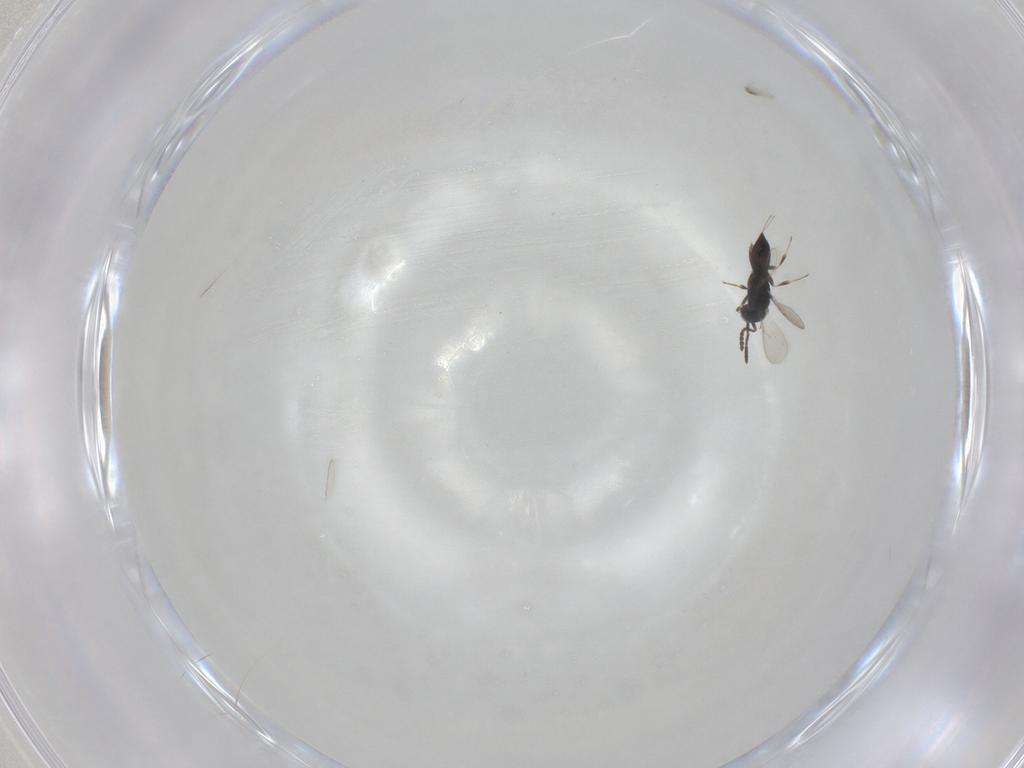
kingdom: Animalia
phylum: Arthropoda
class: Insecta
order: Hymenoptera
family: Scelionidae
